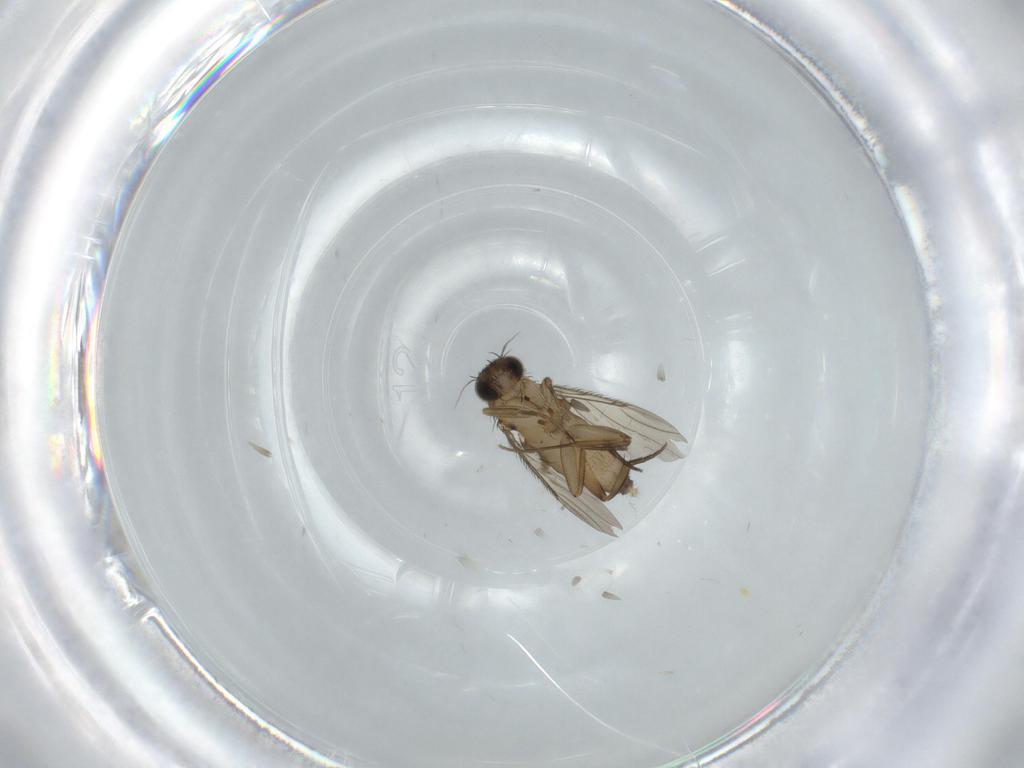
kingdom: Animalia
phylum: Arthropoda
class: Insecta
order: Diptera
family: Phoridae
